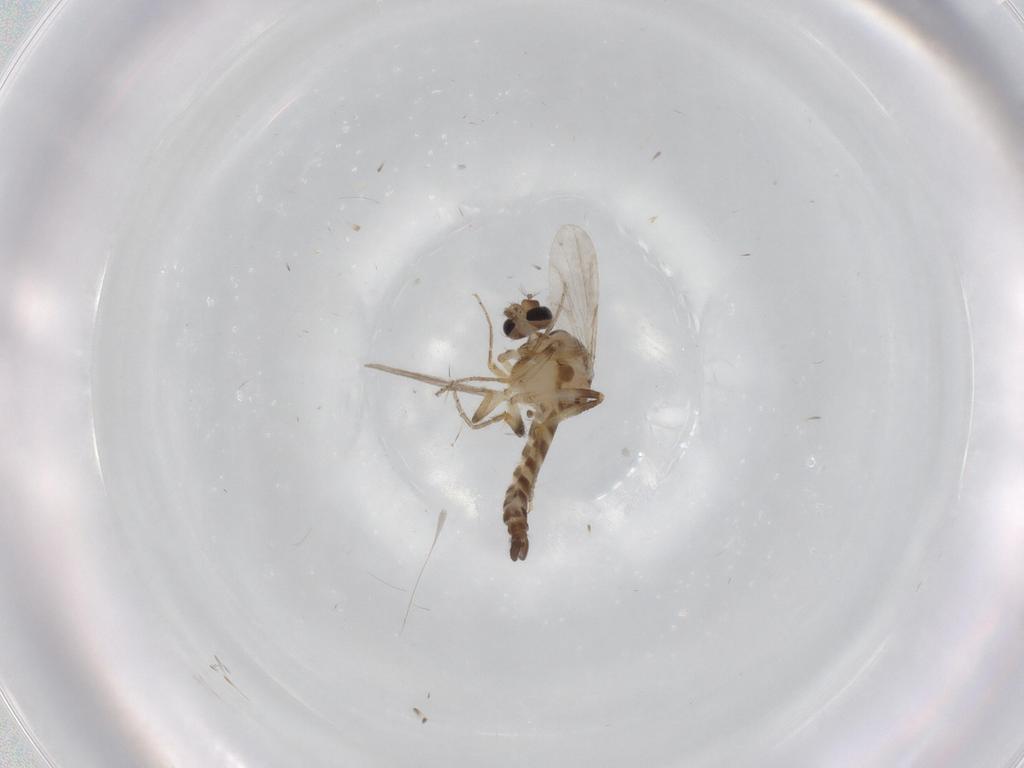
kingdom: Animalia
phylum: Arthropoda
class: Insecta
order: Diptera
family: Ceratopogonidae
